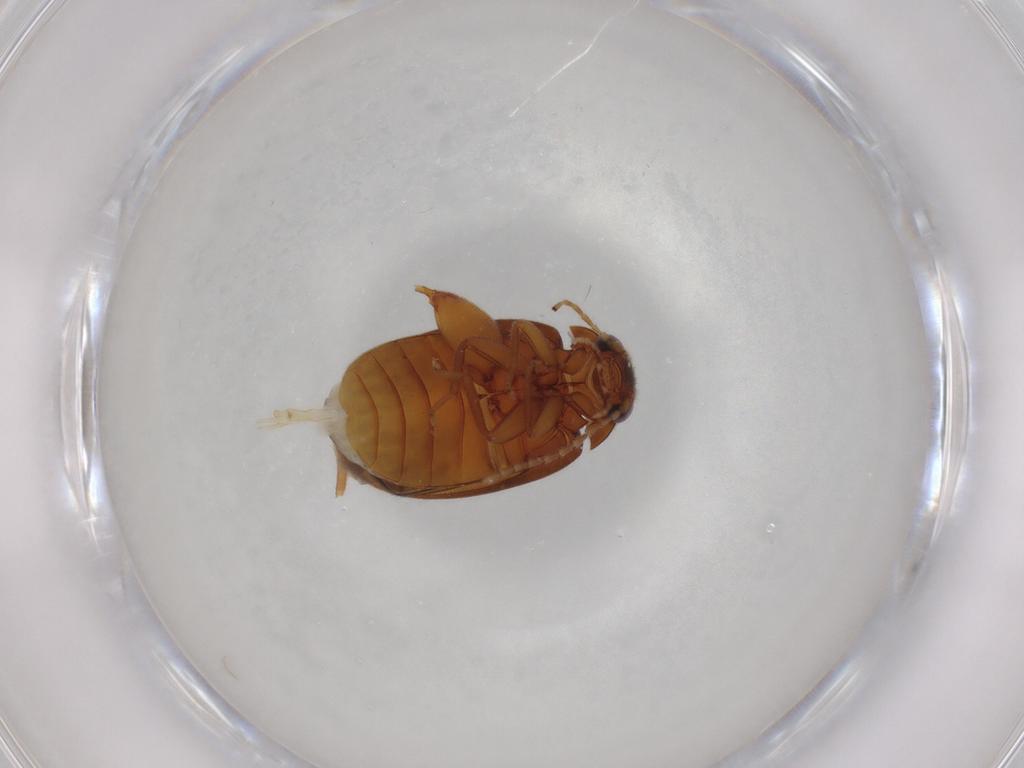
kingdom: Animalia
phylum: Arthropoda
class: Insecta
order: Coleoptera
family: Scirtidae
